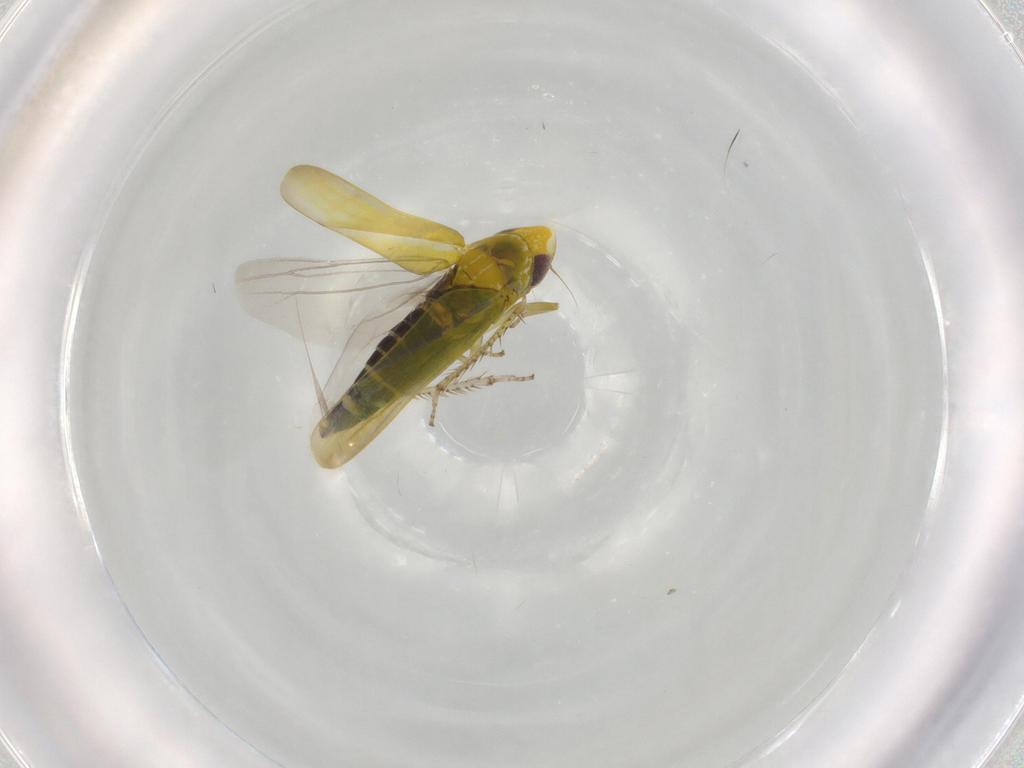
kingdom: Animalia
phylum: Arthropoda
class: Insecta
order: Hemiptera
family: Cicadellidae
